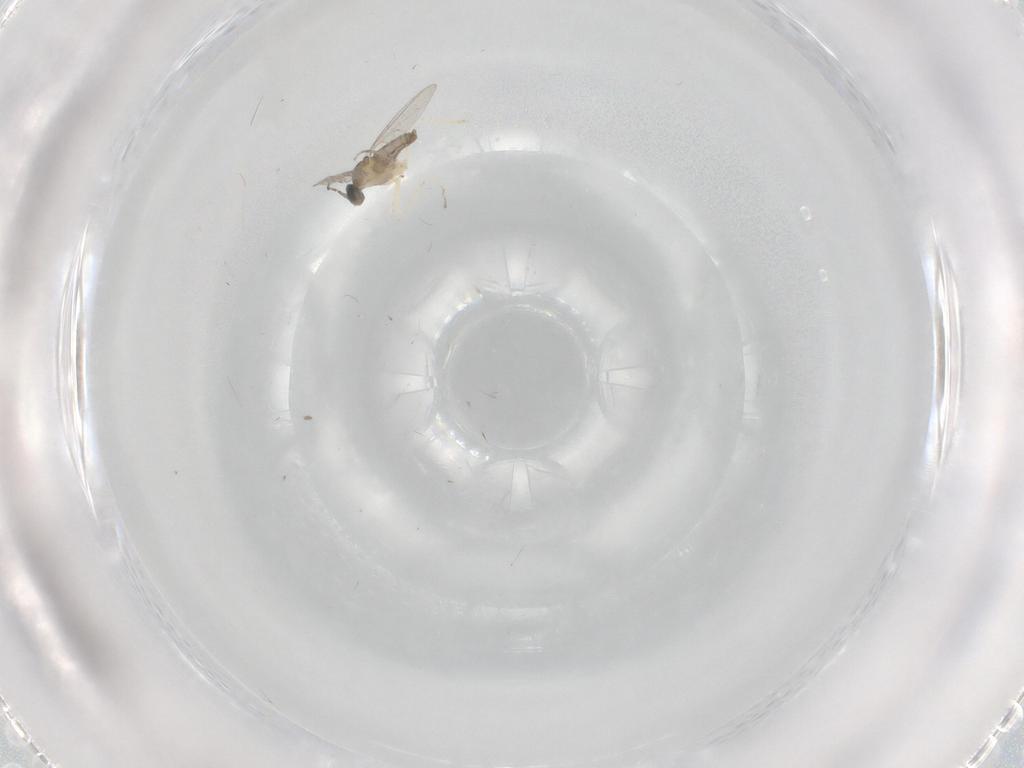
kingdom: Animalia
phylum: Arthropoda
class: Insecta
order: Diptera
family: Cecidomyiidae
